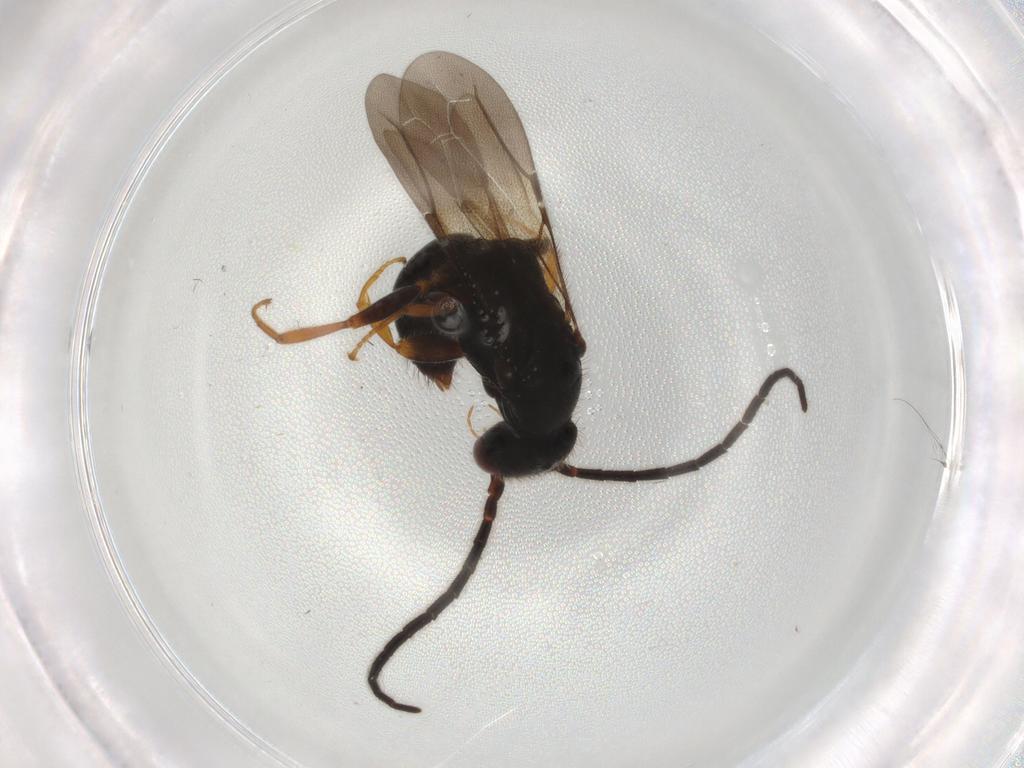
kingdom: Animalia
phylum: Arthropoda
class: Insecta
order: Hymenoptera
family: Bethylidae
